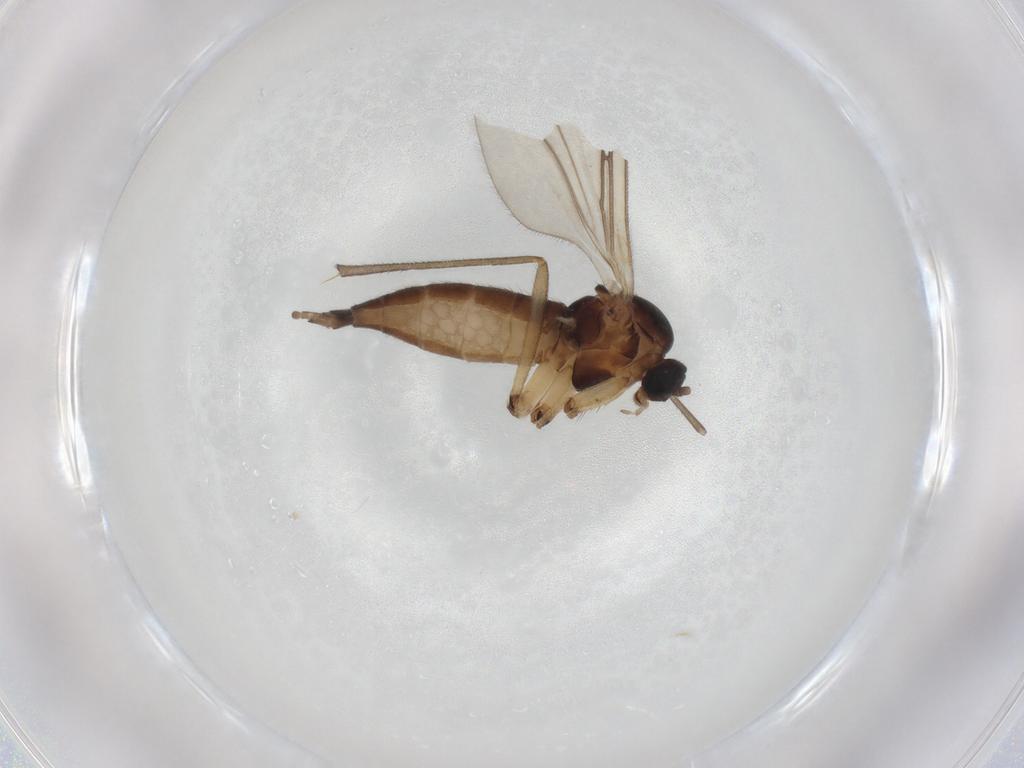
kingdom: Animalia
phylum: Arthropoda
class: Insecta
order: Diptera
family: Sciaridae
